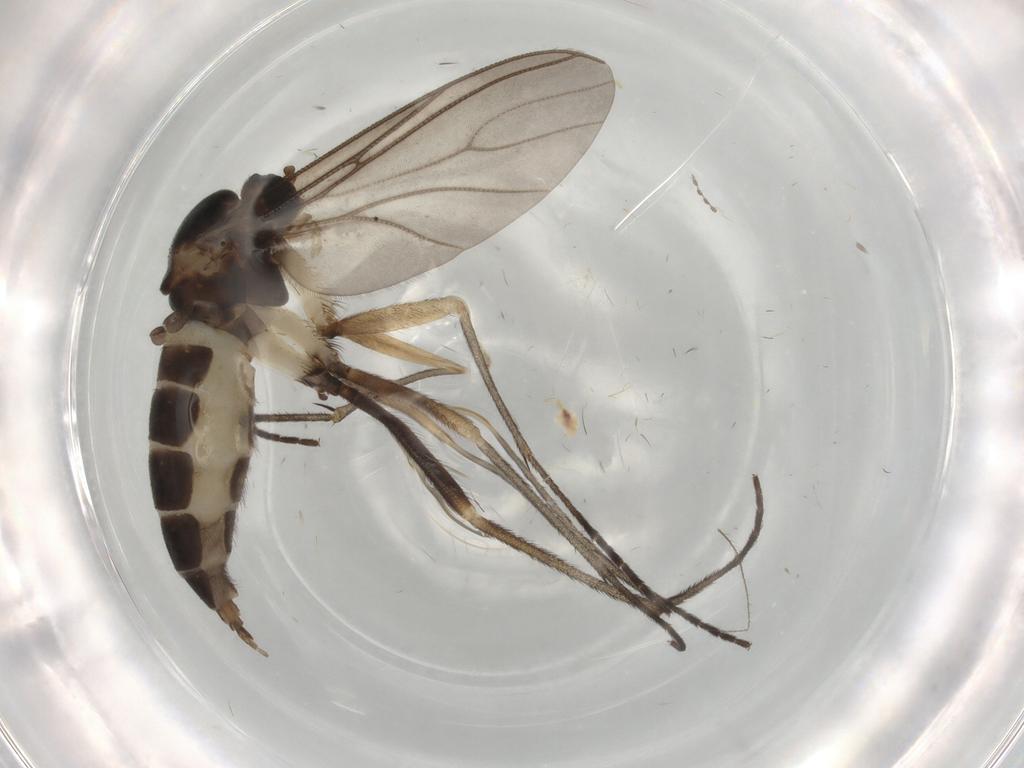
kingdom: Animalia
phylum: Arthropoda
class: Insecta
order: Diptera
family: Sciaridae
